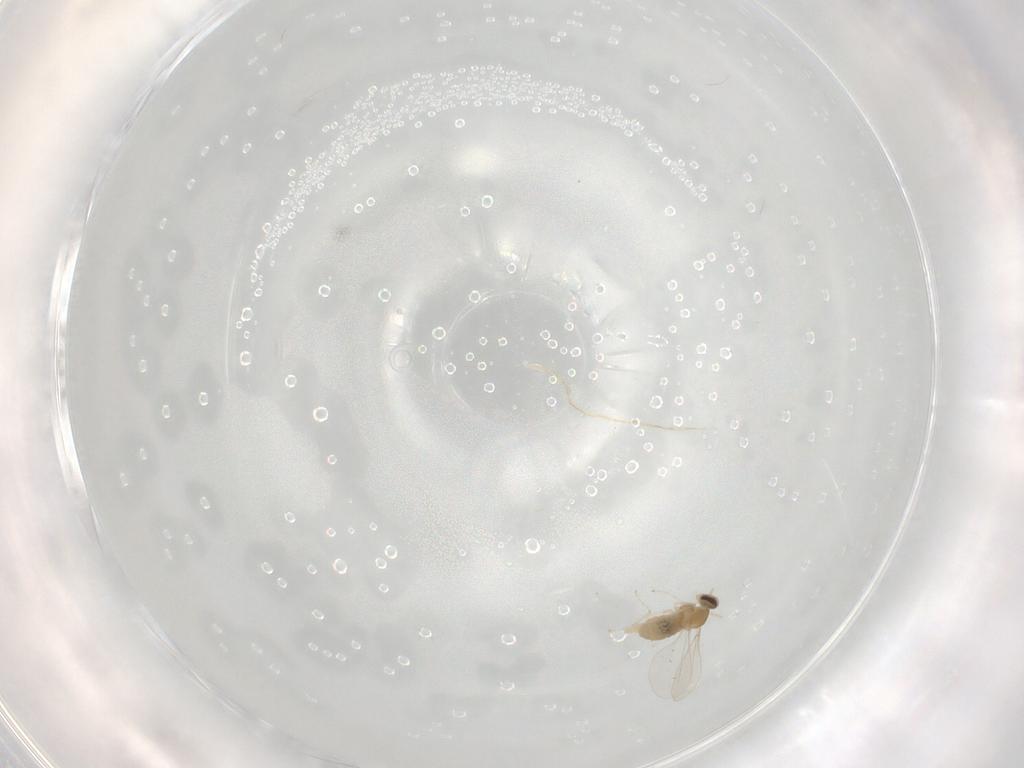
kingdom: Animalia
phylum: Arthropoda
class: Insecta
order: Diptera
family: Cecidomyiidae
